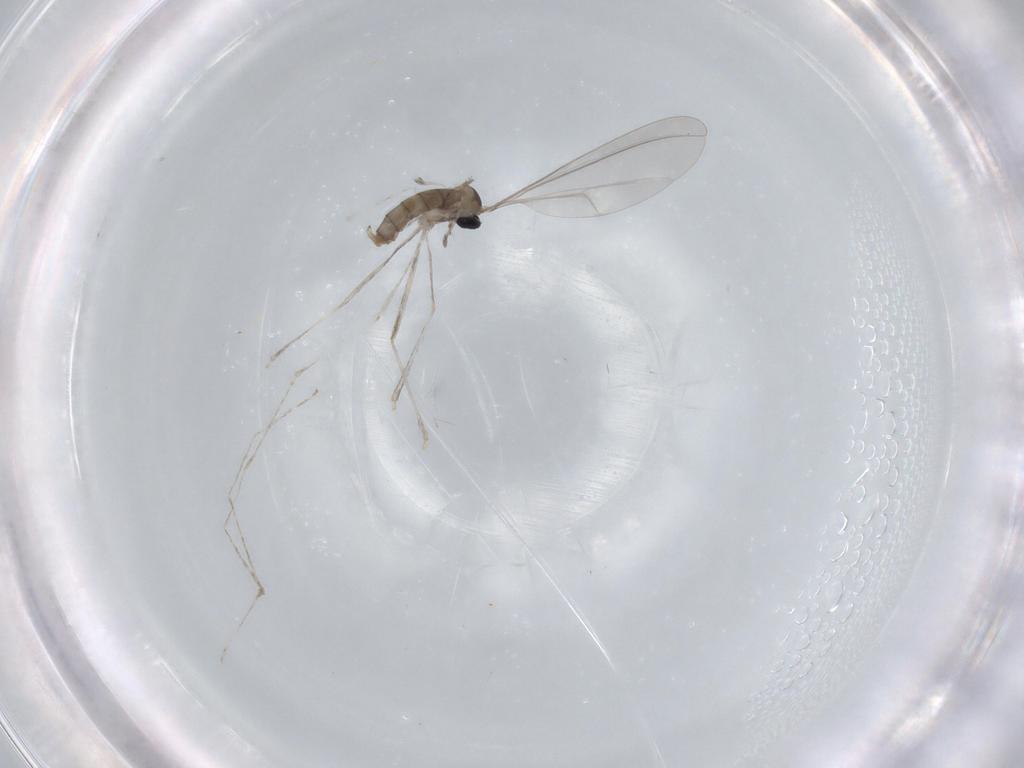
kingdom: Animalia
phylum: Arthropoda
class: Insecta
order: Diptera
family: Cecidomyiidae
